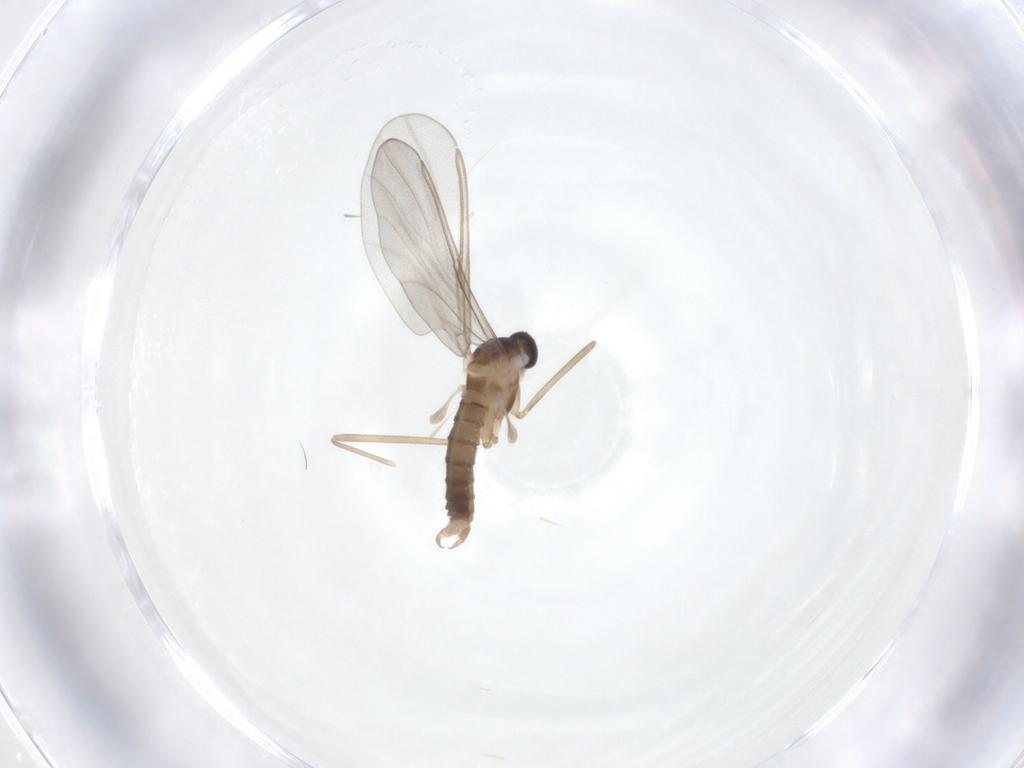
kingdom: Animalia
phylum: Arthropoda
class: Insecta
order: Diptera
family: Cecidomyiidae
